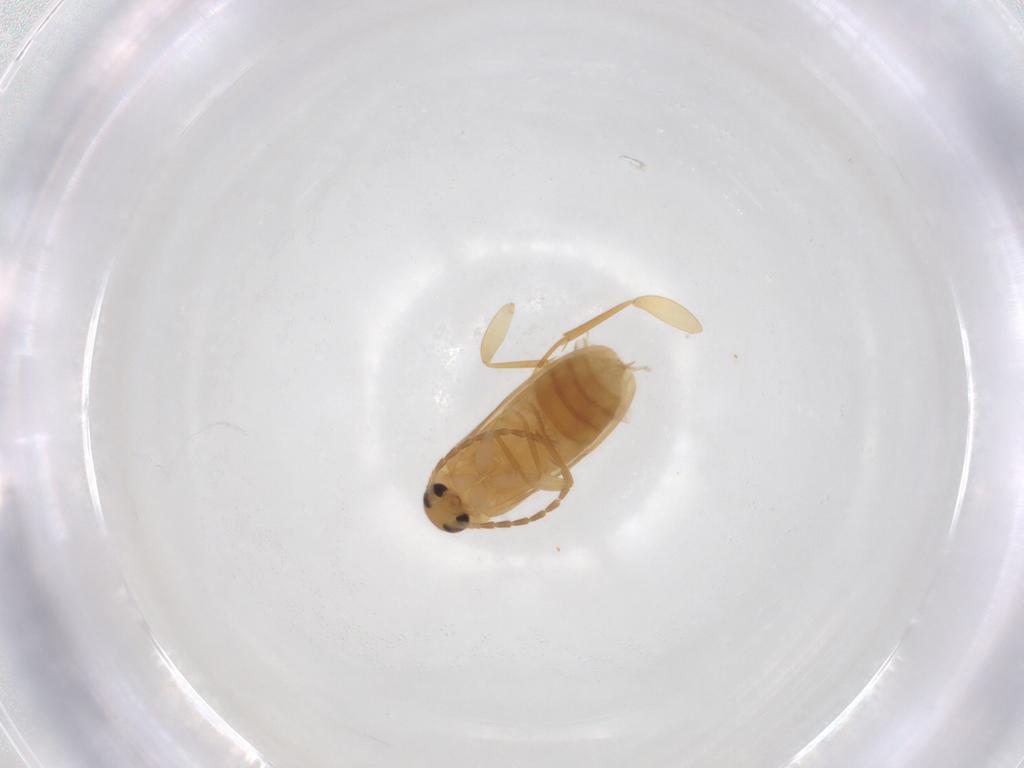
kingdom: Animalia
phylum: Arthropoda
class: Insecta
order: Coleoptera
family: Scraptiidae
